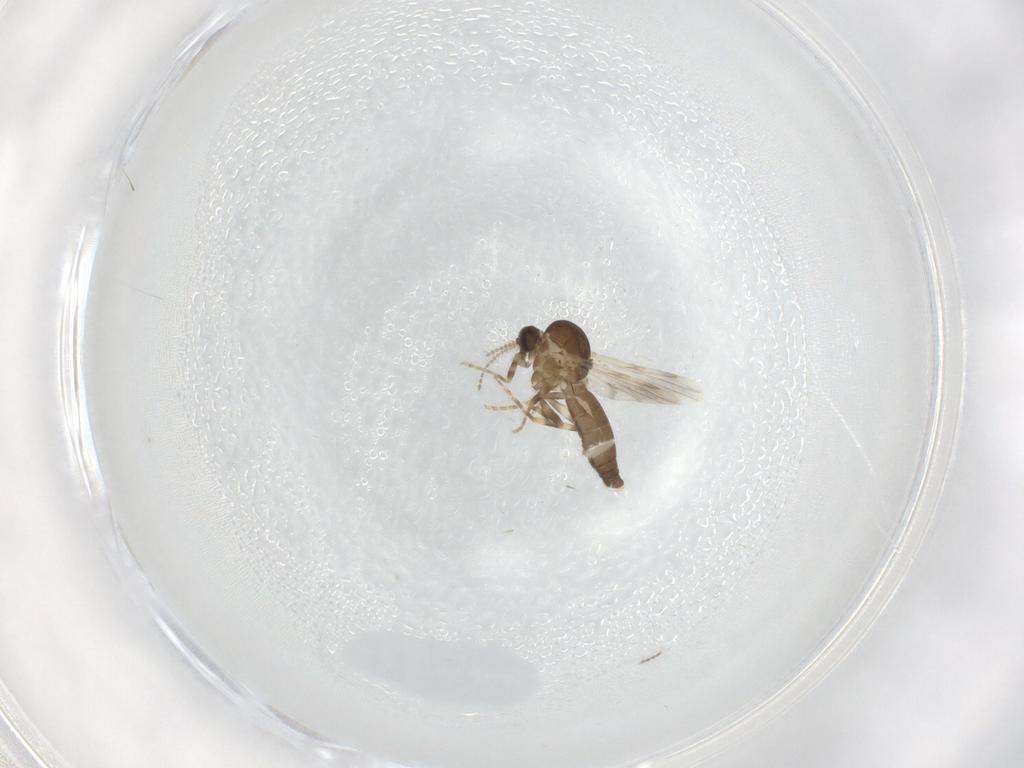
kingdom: Animalia
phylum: Arthropoda
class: Insecta
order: Diptera
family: Ceratopogonidae
